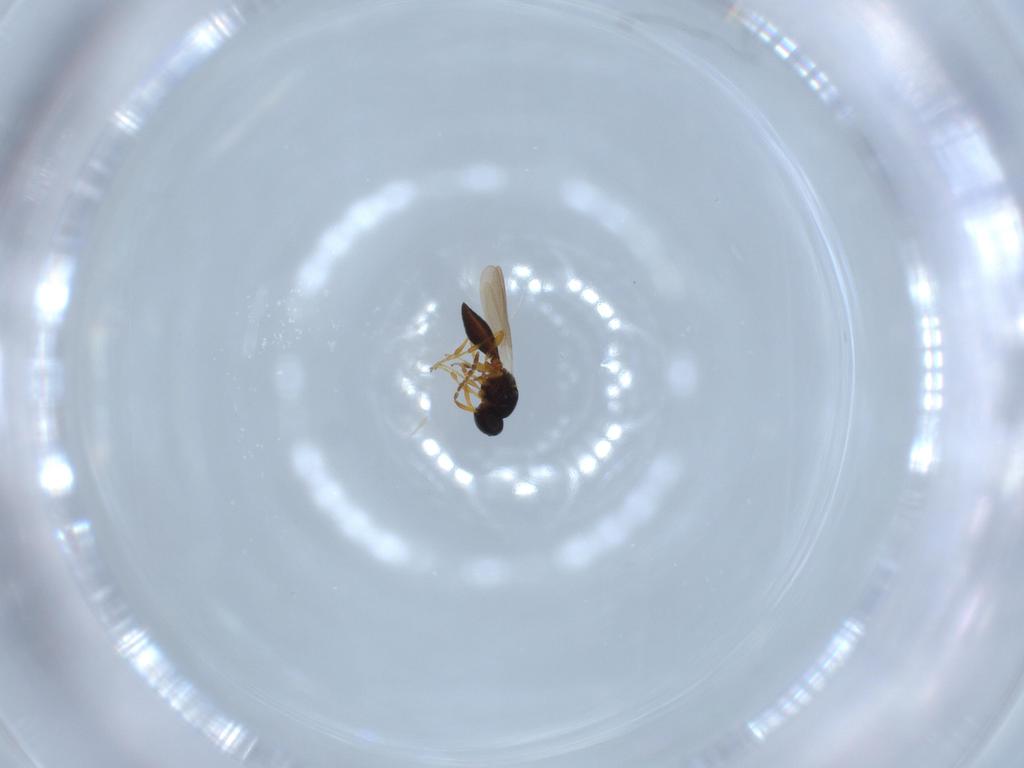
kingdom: Animalia
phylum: Arthropoda
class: Insecta
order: Hymenoptera
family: Platygastridae
